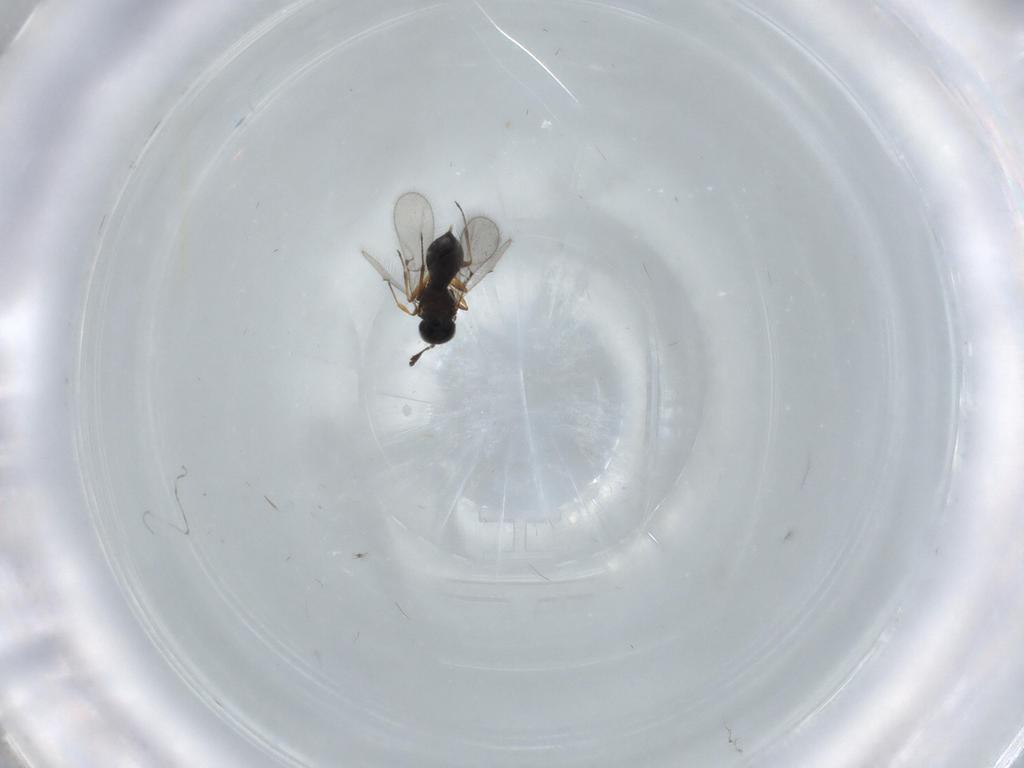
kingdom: Animalia
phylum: Arthropoda
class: Insecta
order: Hymenoptera
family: Scelionidae
